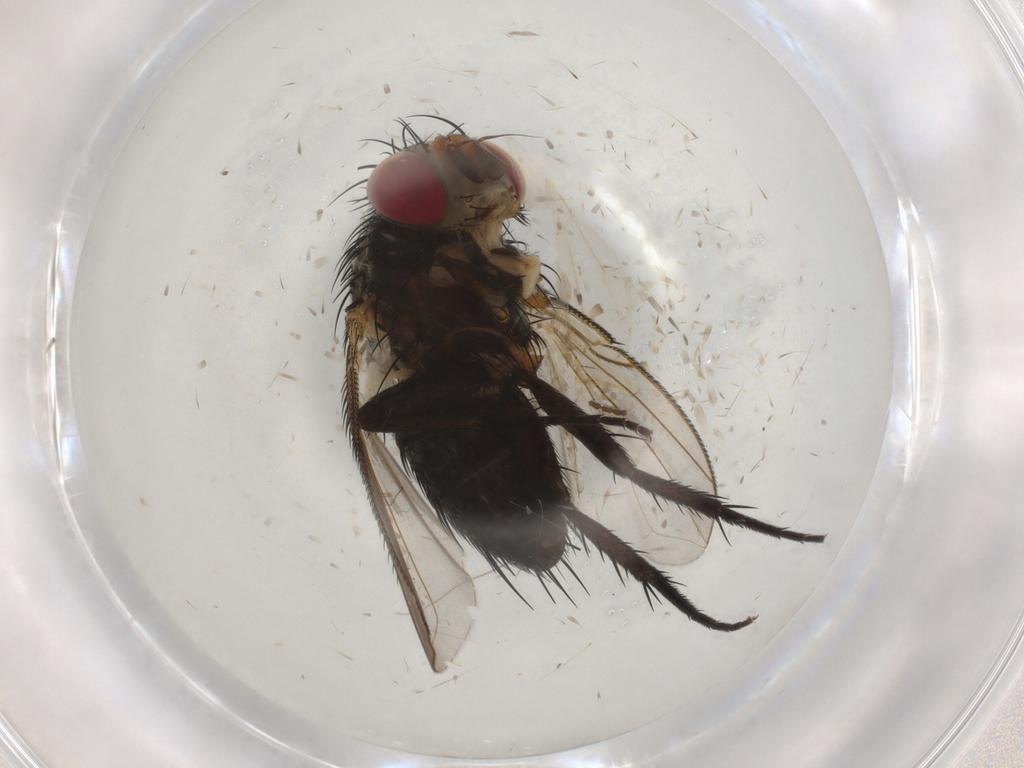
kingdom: Animalia
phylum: Arthropoda
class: Insecta
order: Diptera
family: Tachinidae
